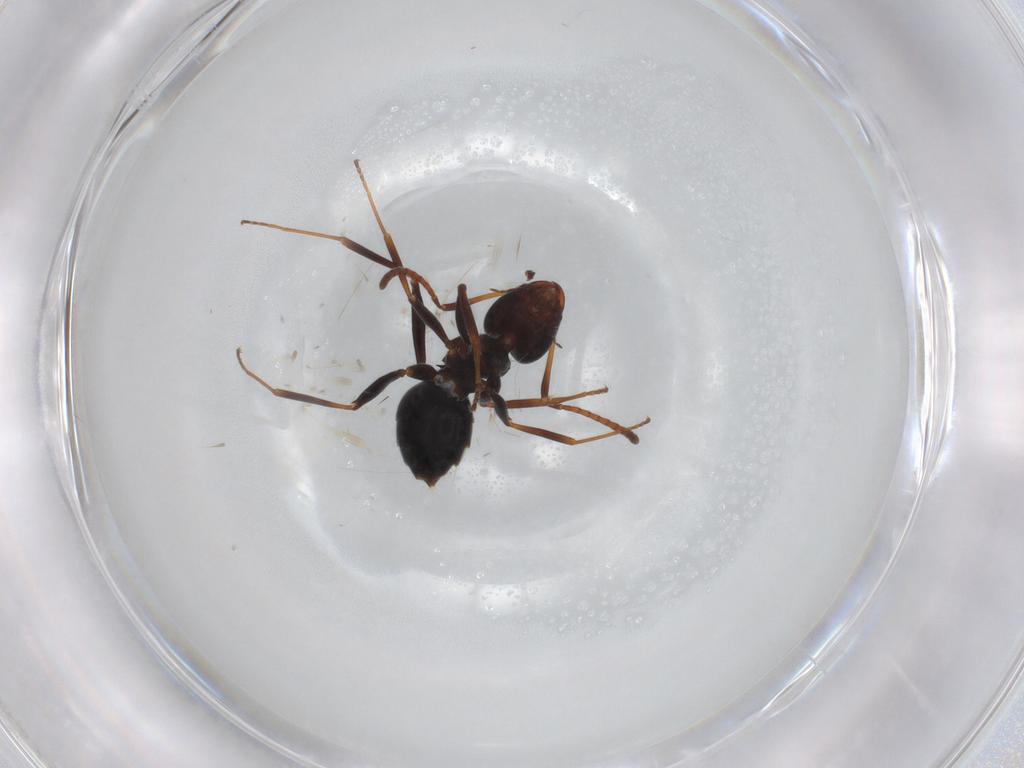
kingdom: Animalia
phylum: Arthropoda
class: Insecta
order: Hymenoptera
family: Formicidae
